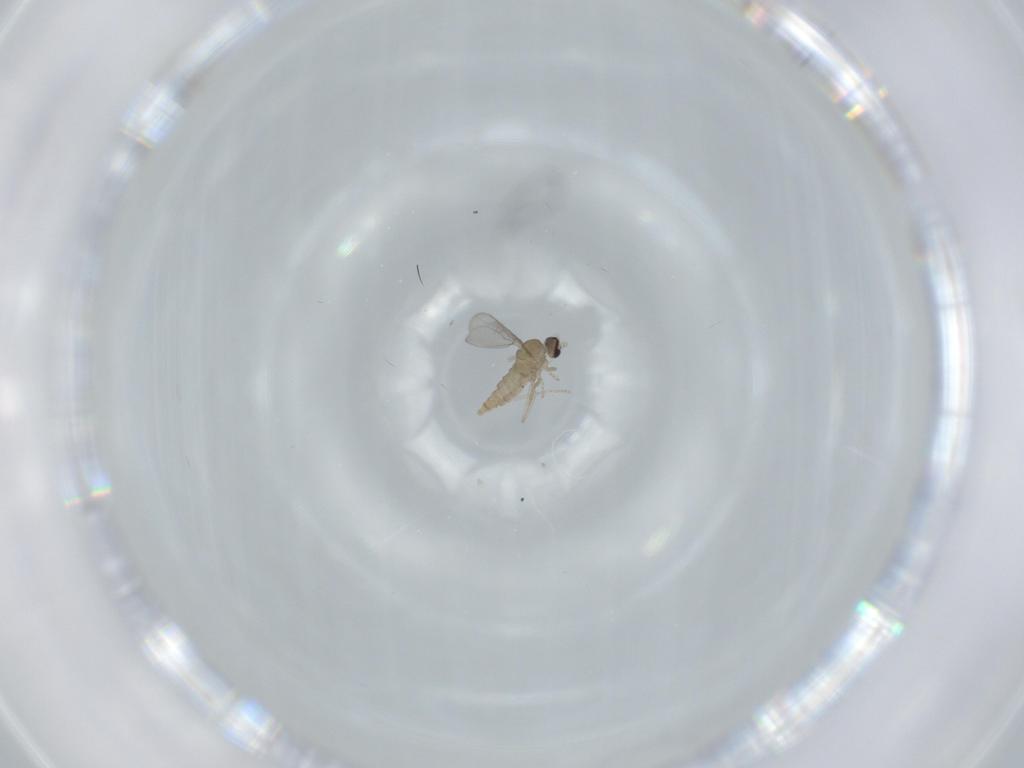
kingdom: Animalia
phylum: Arthropoda
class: Insecta
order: Diptera
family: Cecidomyiidae
